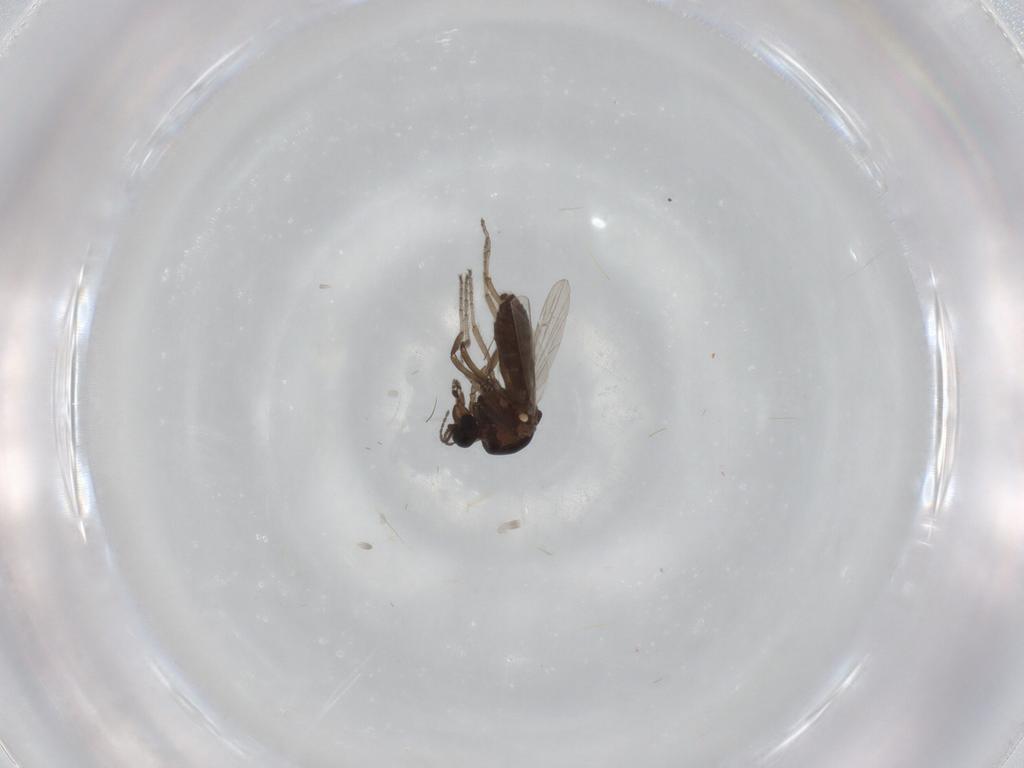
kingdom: Animalia
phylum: Arthropoda
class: Insecta
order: Diptera
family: Ceratopogonidae
